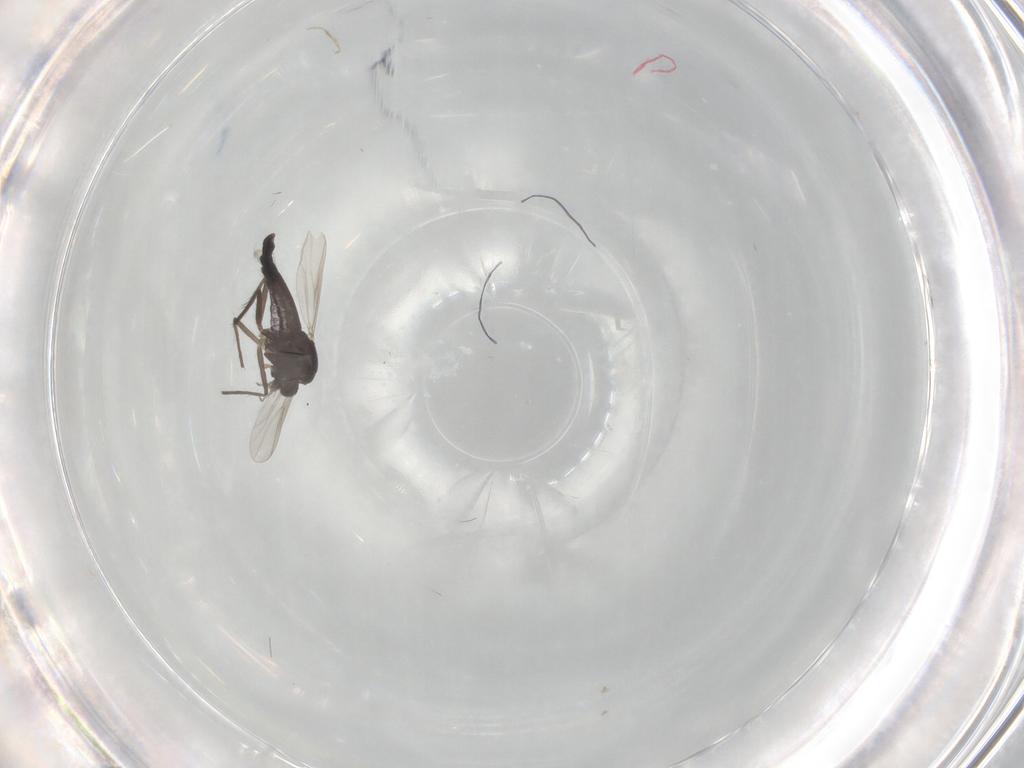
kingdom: Animalia
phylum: Arthropoda
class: Insecta
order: Diptera
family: Chironomidae
